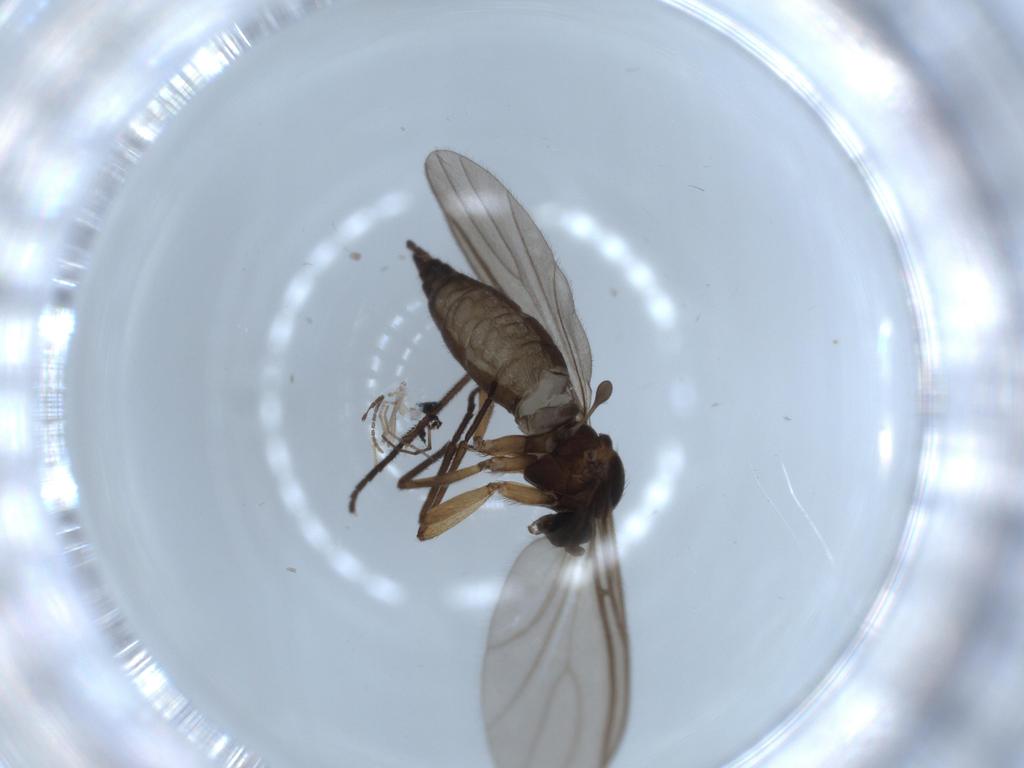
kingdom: Animalia
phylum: Arthropoda
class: Insecta
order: Diptera
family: Sciaridae
